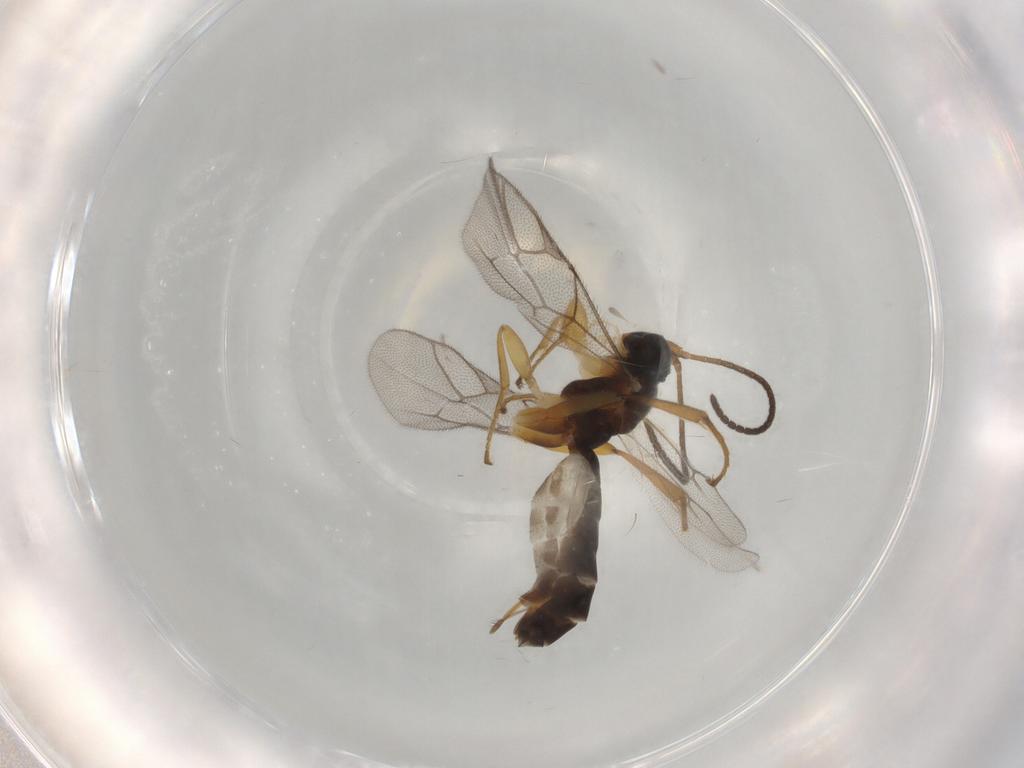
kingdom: Animalia
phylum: Arthropoda
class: Insecta
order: Hymenoptera
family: Ichneumonidae
